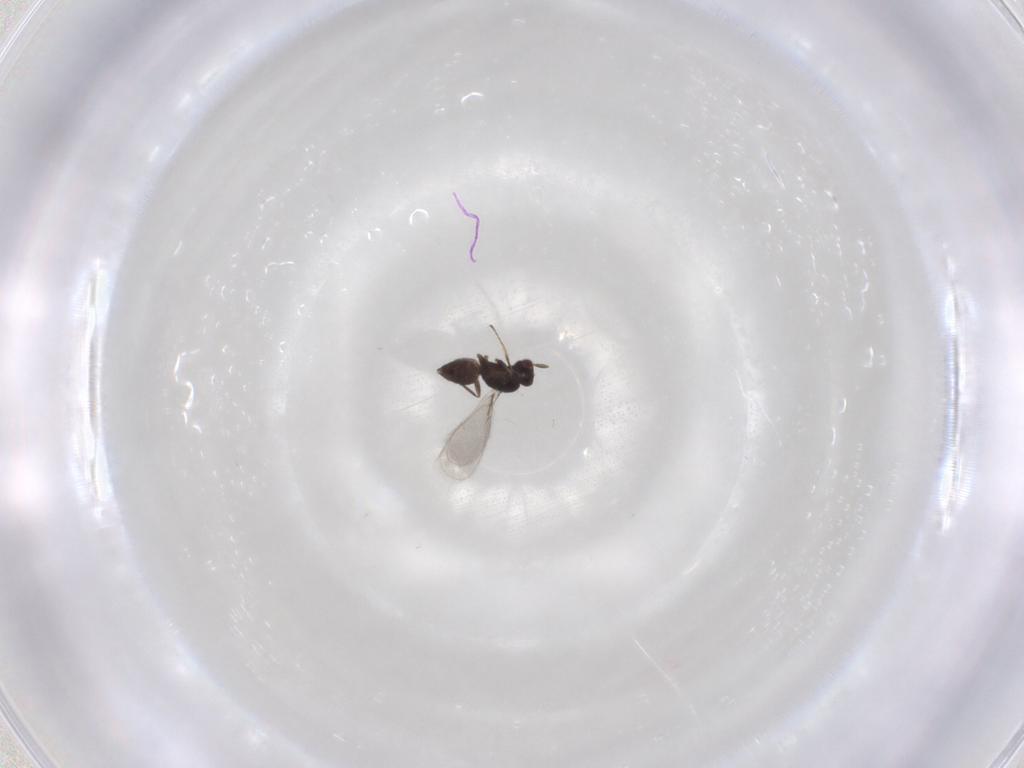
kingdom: Animalia
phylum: Arthropoda
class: Insecta
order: Hymenoptera
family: Mymaridae
